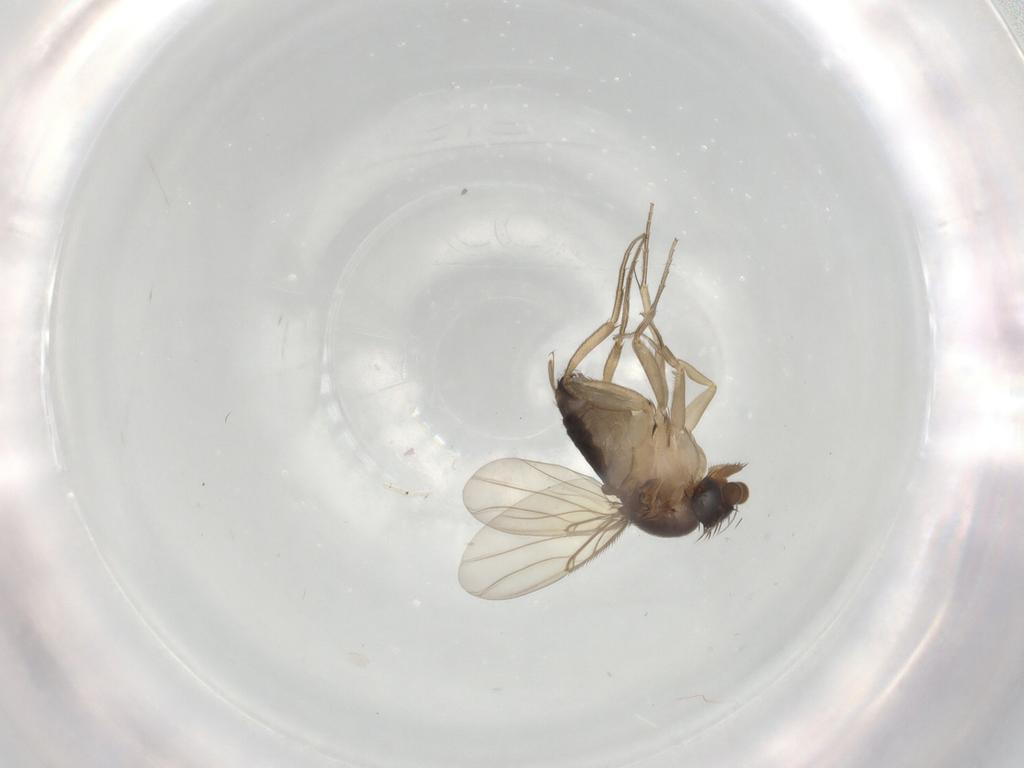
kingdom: Animalia
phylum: Arthropoda
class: Insecta
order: Diptera
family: Phoridae
